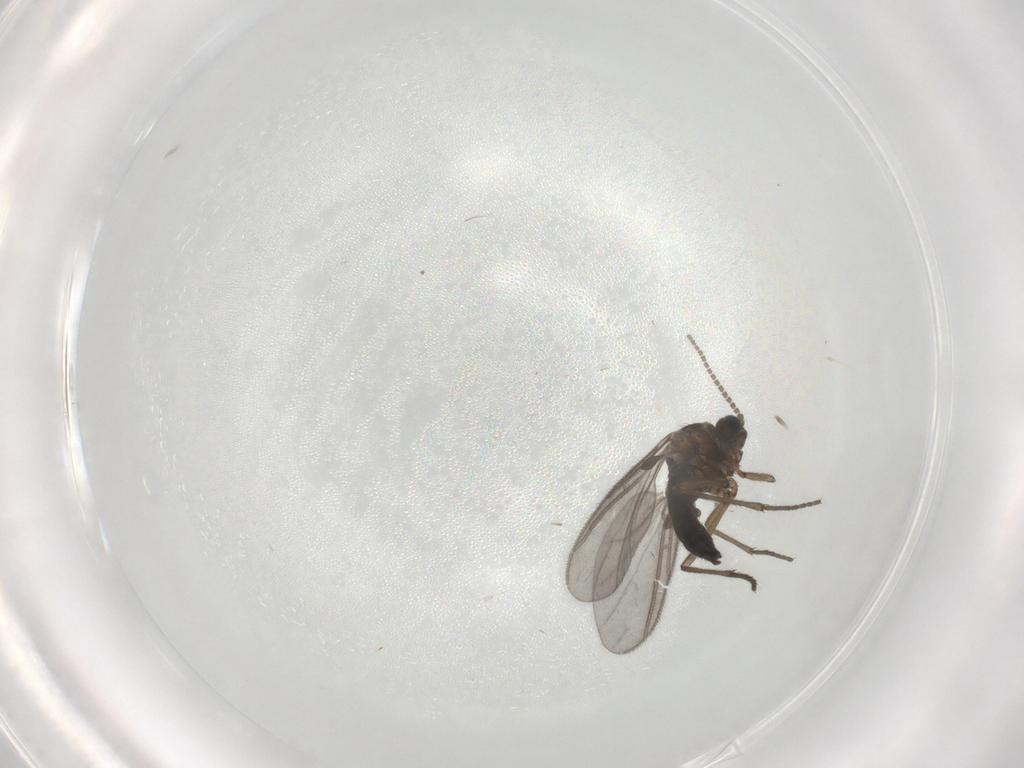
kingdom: Animalia
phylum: Arthropoda
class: Insecta
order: Diptera
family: Sciaridae
